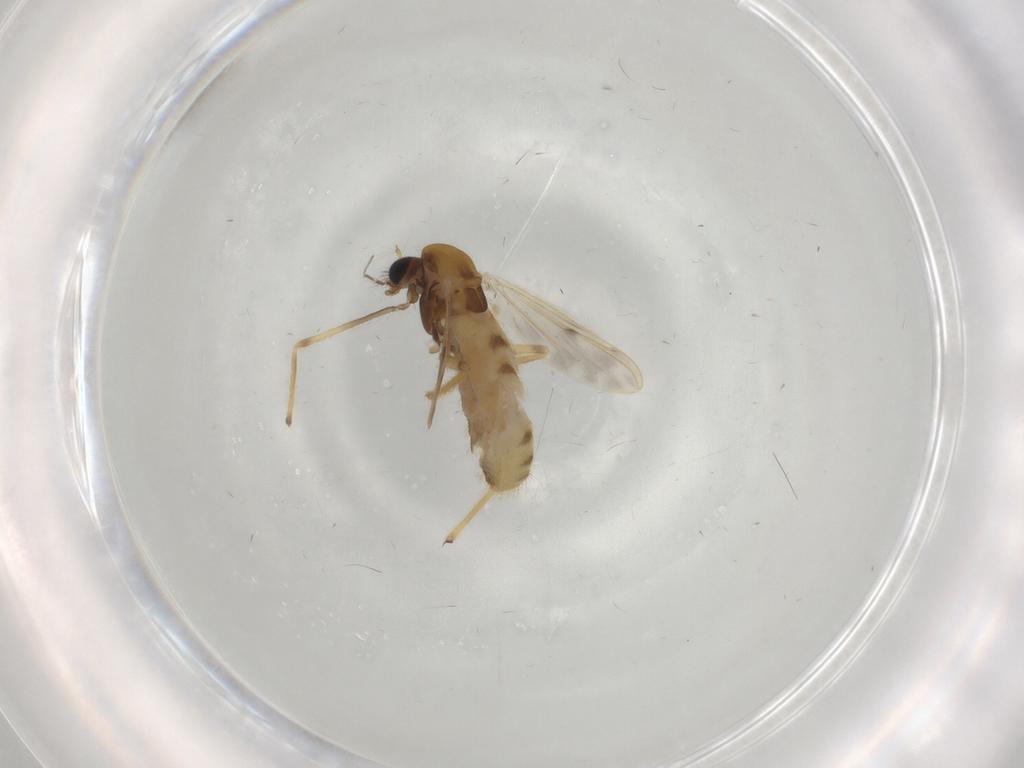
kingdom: Animalia
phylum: Arthropoda
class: Insecta
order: Diptera
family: Chironomidae
